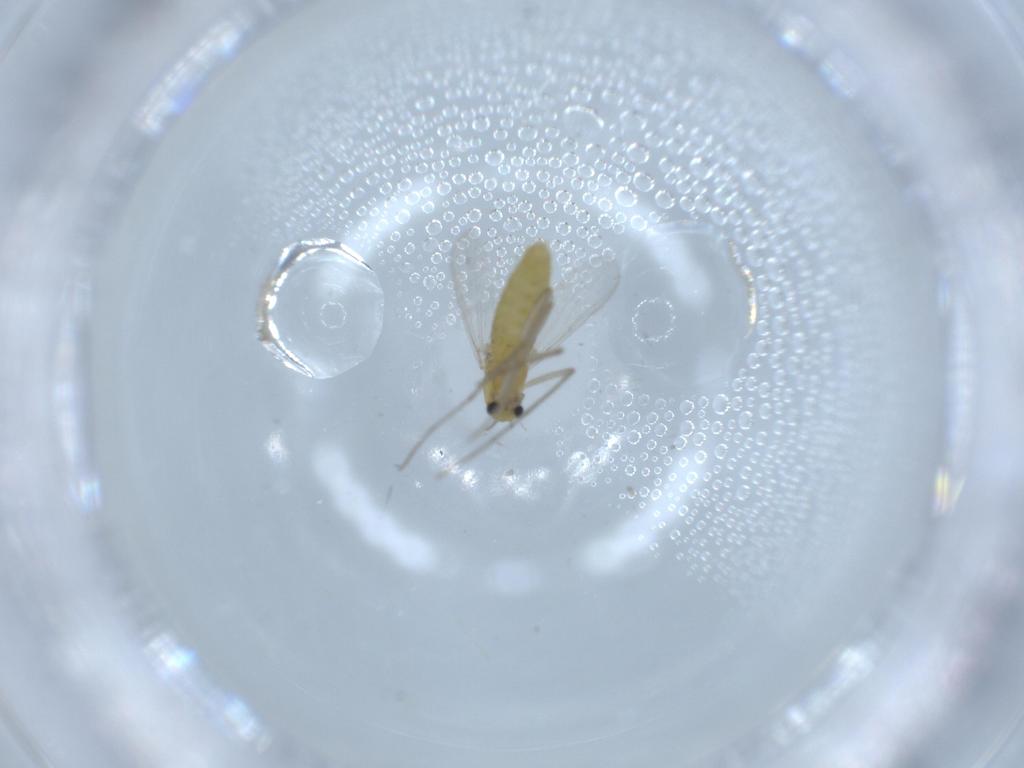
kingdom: Animalia
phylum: Arthropoda
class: Insecta
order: Diptera
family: Chironomidae
